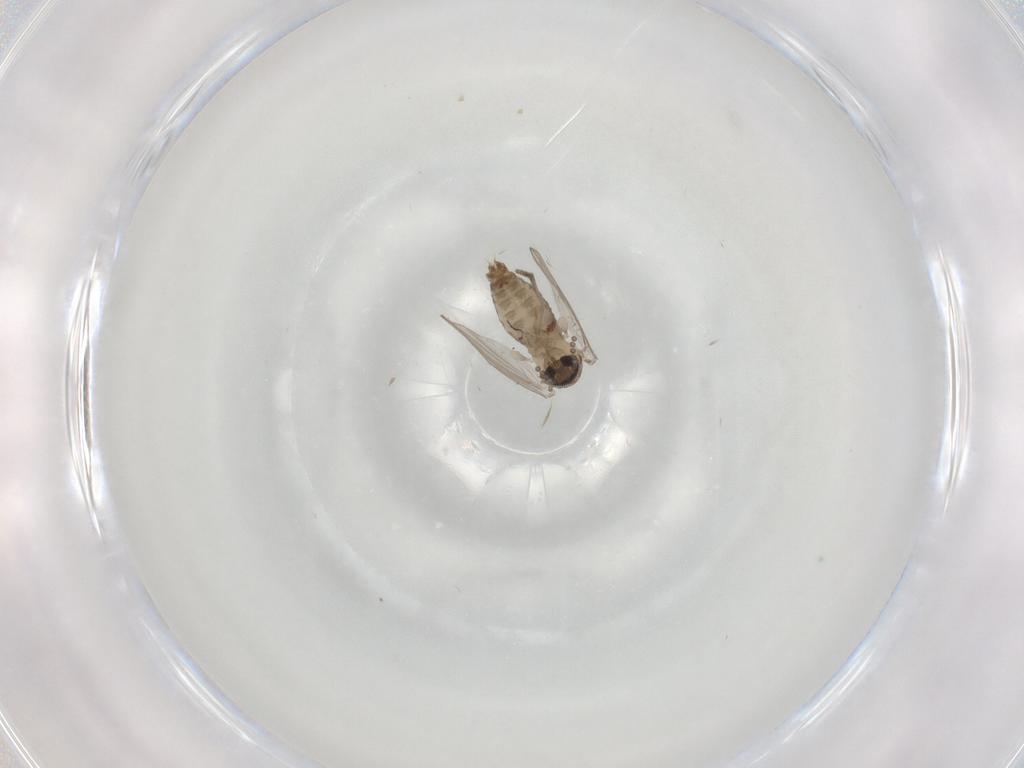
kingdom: Animalia
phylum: Arthropoda
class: Insecta
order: Diptera
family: Psychodidae
